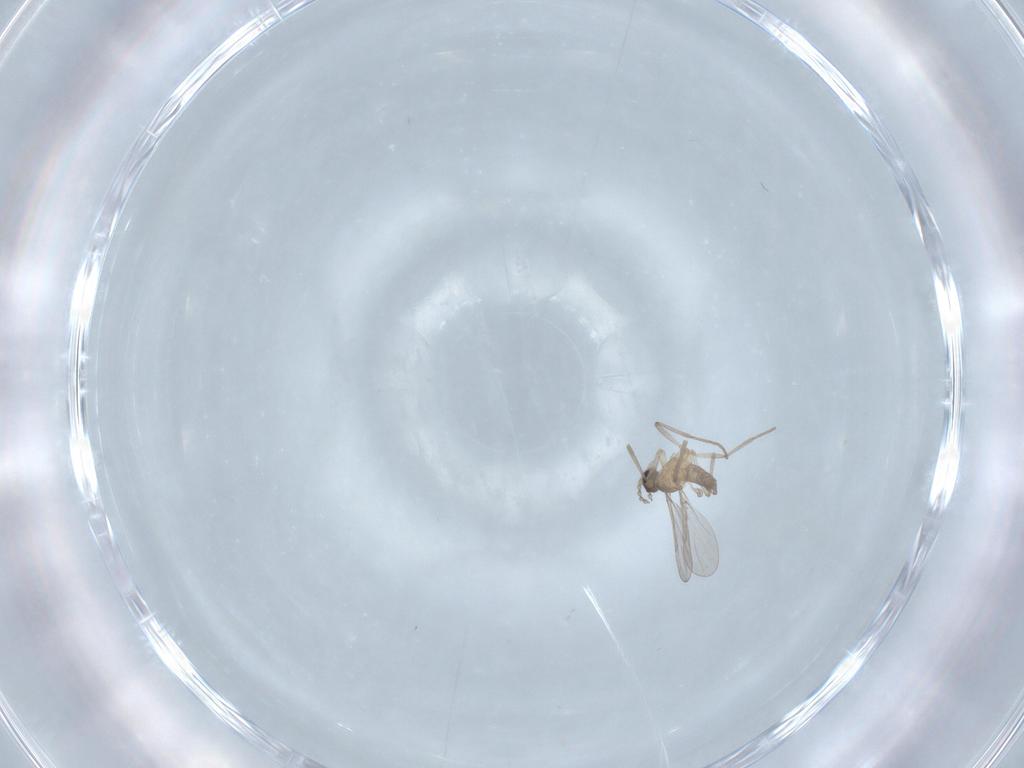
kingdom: Animalia
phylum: Arthropoda
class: Insecta
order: Diptera
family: Cecidomyiidae
